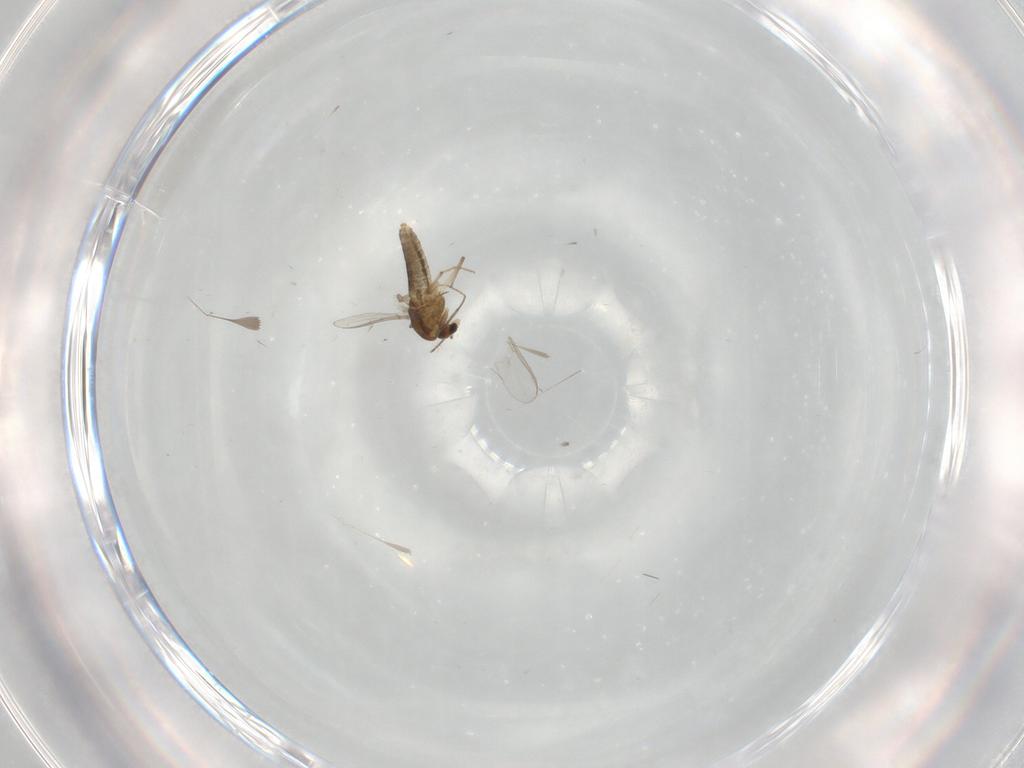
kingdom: Animalia
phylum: Arthropoda
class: Insecta
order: Diptera
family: Chironomidae
